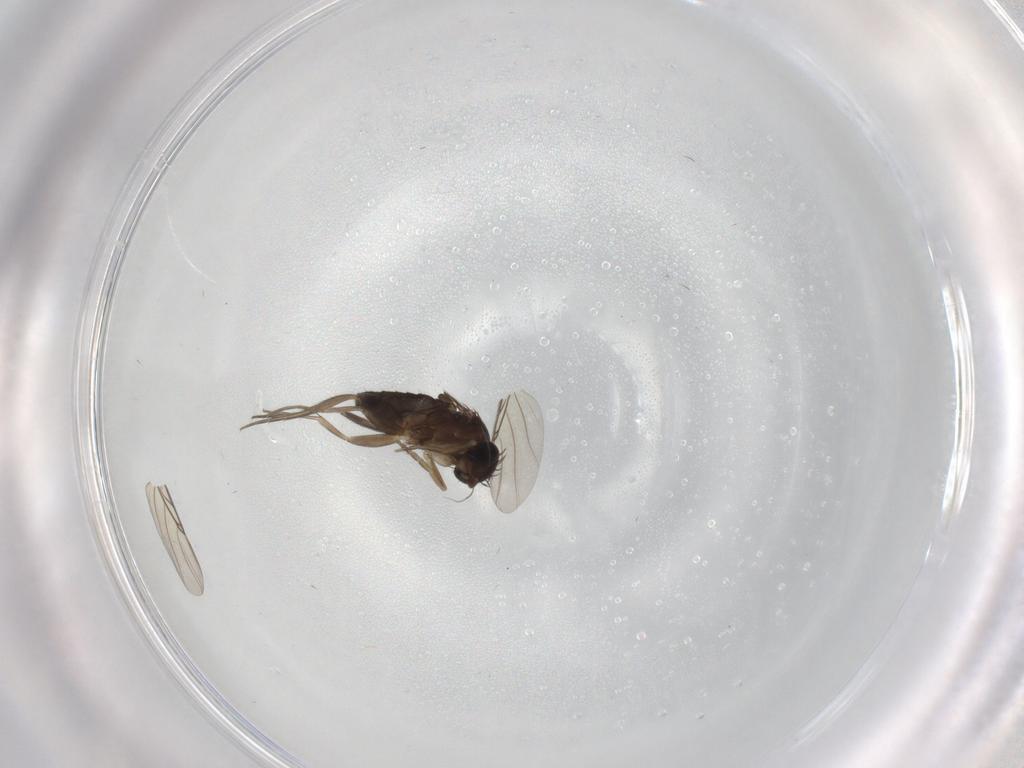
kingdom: Animalia
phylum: Arthropoda
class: Insecta
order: Diptera
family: Phoridae
